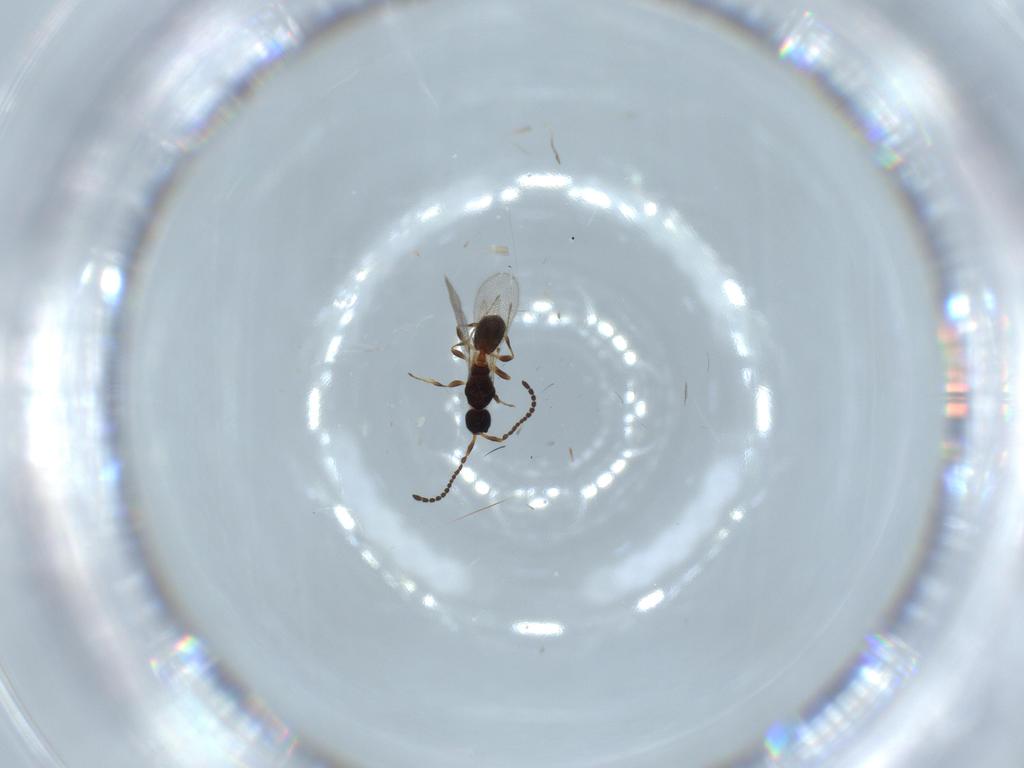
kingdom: Animalia
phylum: Arthropoda
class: Insecta
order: Hymenoptera
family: Diapriidae
